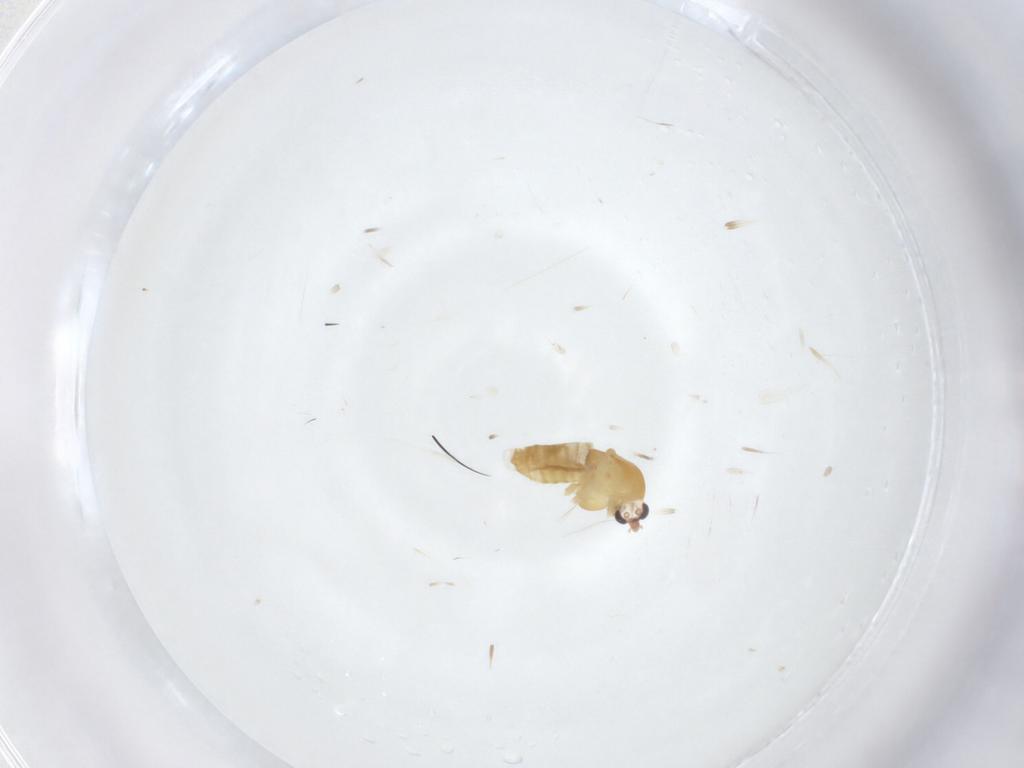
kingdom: Animalia
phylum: Arthropoda
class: Insecta
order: Diptera
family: Chironomidae
